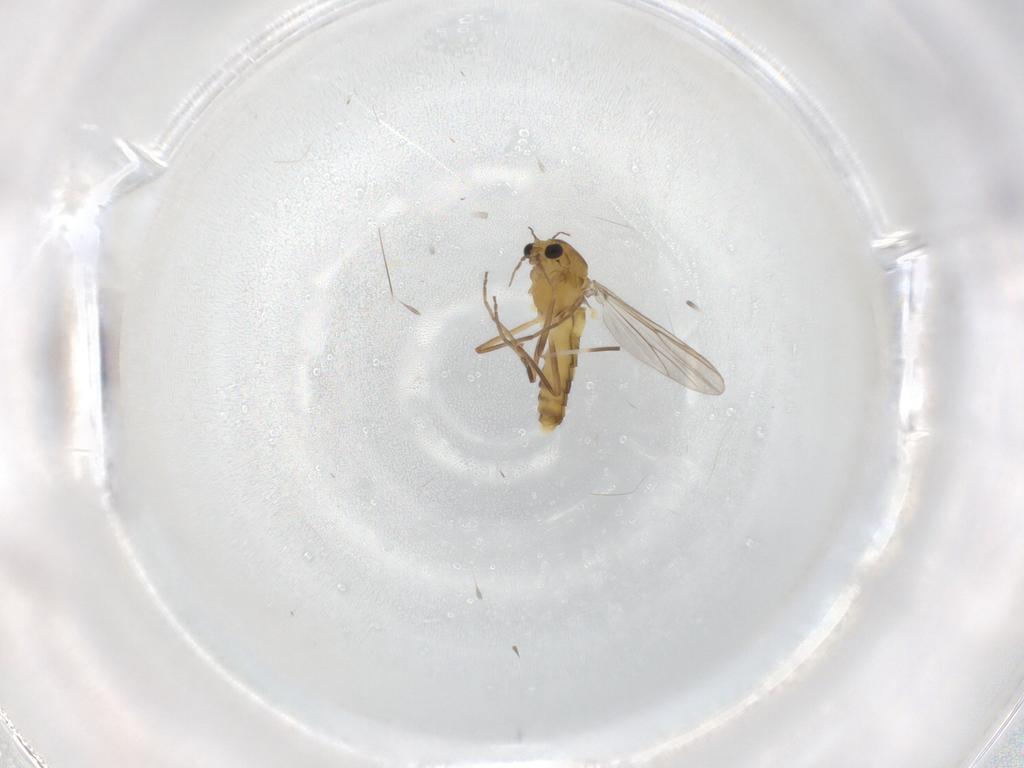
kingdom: Animalia
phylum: Arthropoda
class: Insecta
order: Diptera
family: Chironomidae
